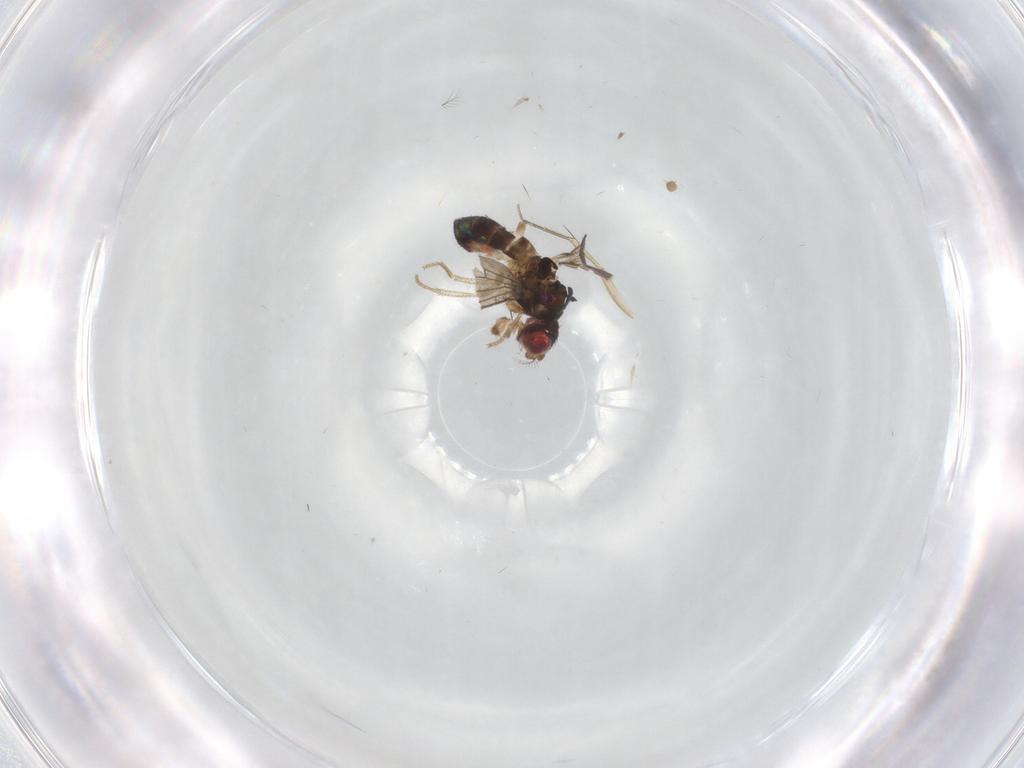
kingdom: Animalia
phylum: Arthropoda
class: Insecta
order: Diptera
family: Drosophilidae
